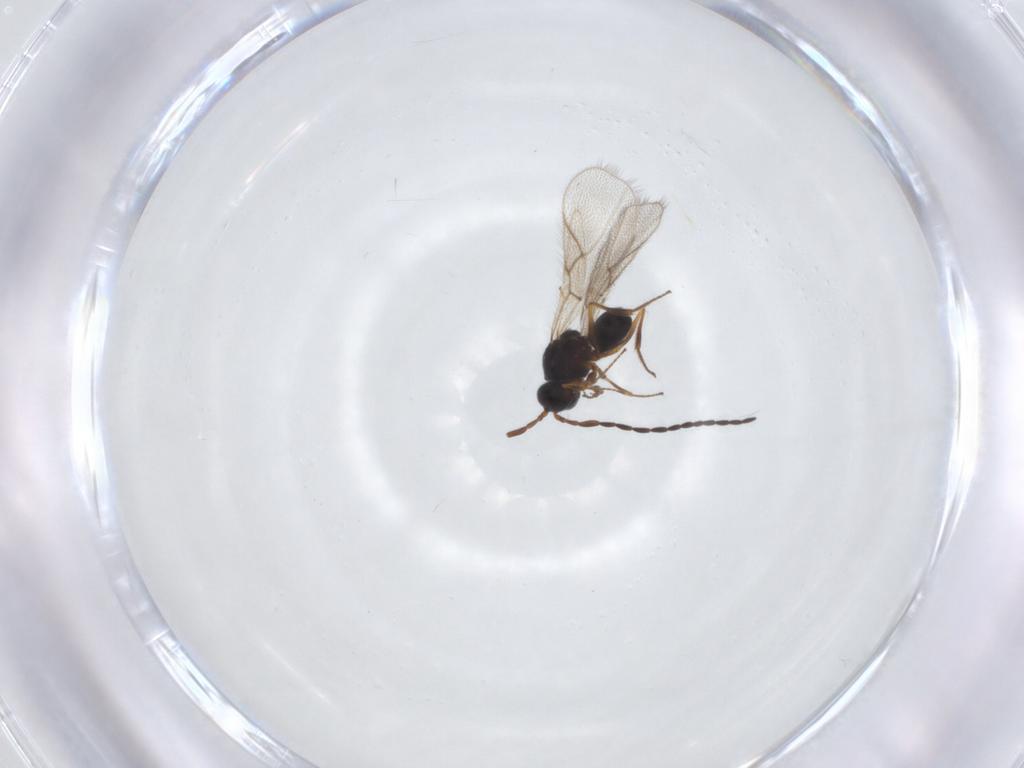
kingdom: Animalia
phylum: Arthropoda
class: Insecta
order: Hymenoptera
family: Figitidae
